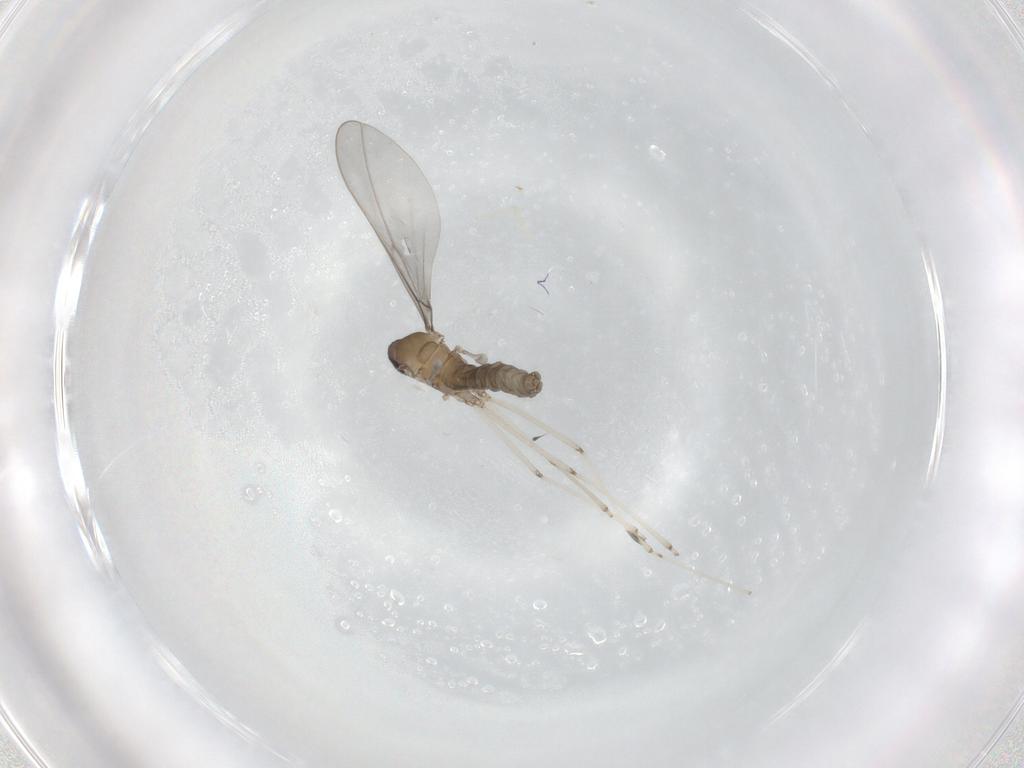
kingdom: Animalia
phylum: Arthropoda
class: Insecta
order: Diptera
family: Cecidomyiidae
